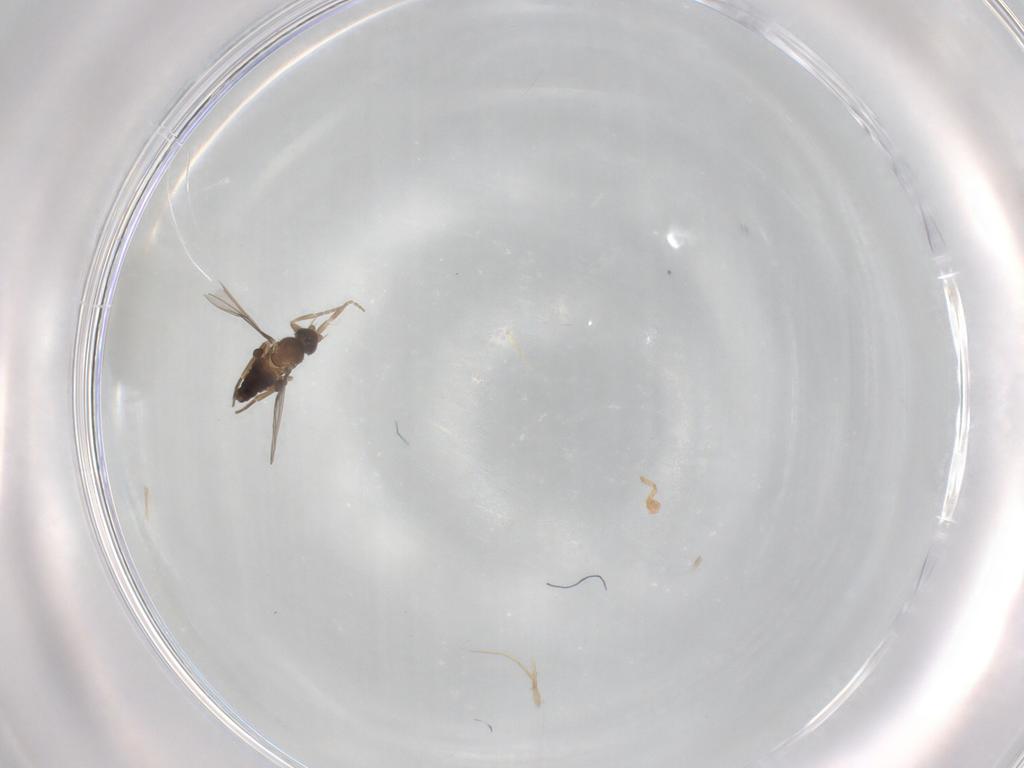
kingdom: Animalia
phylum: Arthropoda
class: Insecta
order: Diptera
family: Phoridae
